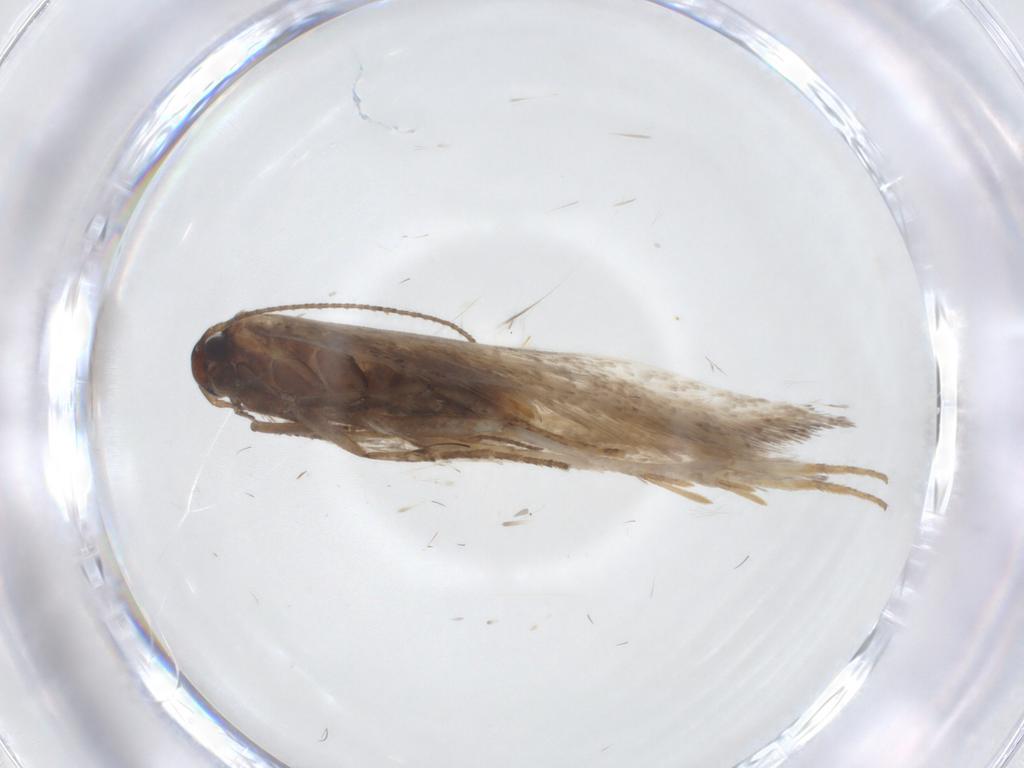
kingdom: Animalia
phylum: Arthropoda
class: Insecta
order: Lepidoptera
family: Gelechiidae
